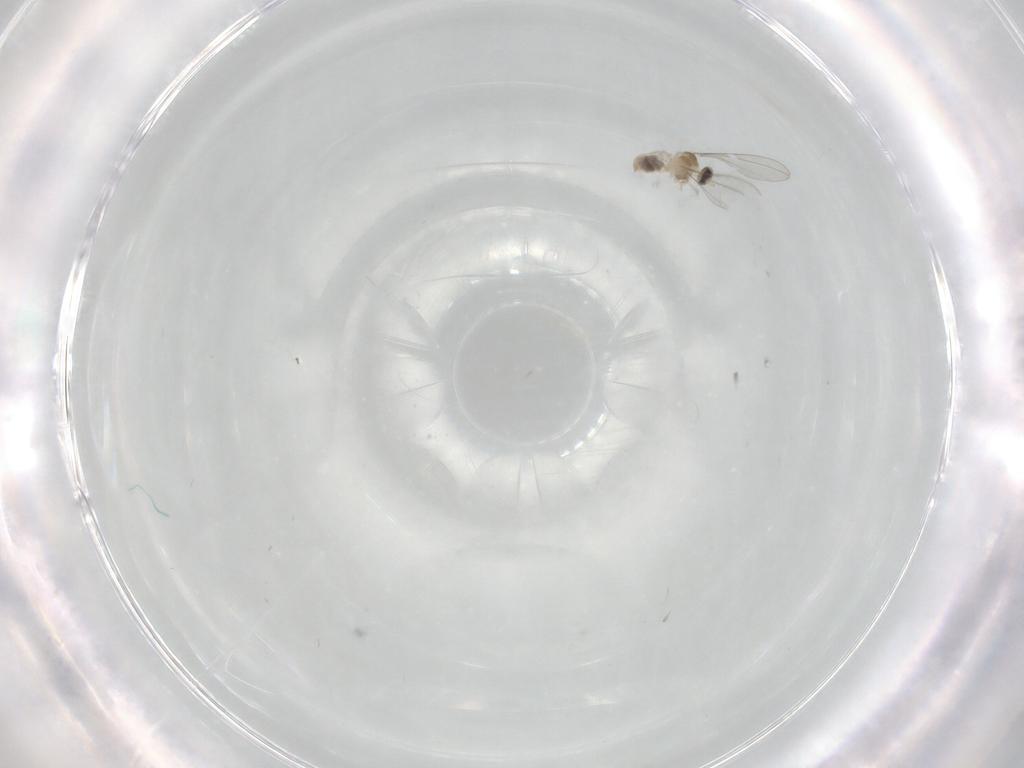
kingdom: Animalia
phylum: Arthropoda
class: Insecta
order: Diptera
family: Cecidomyiidae
